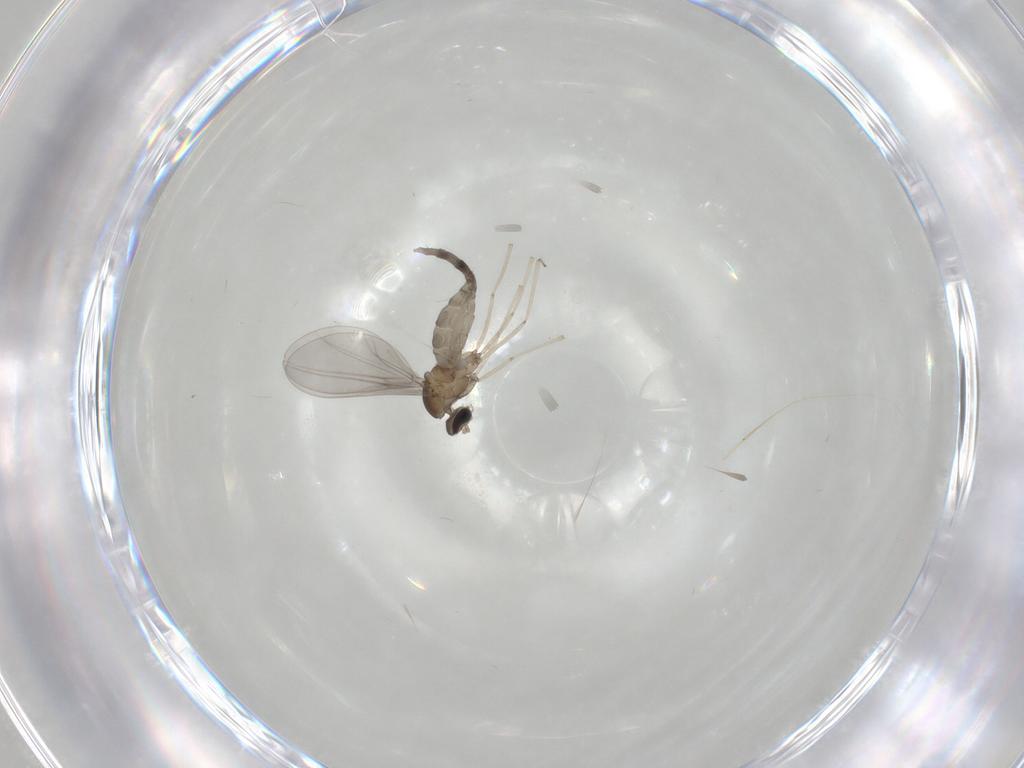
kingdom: Animalia
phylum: Arthropoda
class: Insecta
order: Diptera
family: Cecidomyiidae
